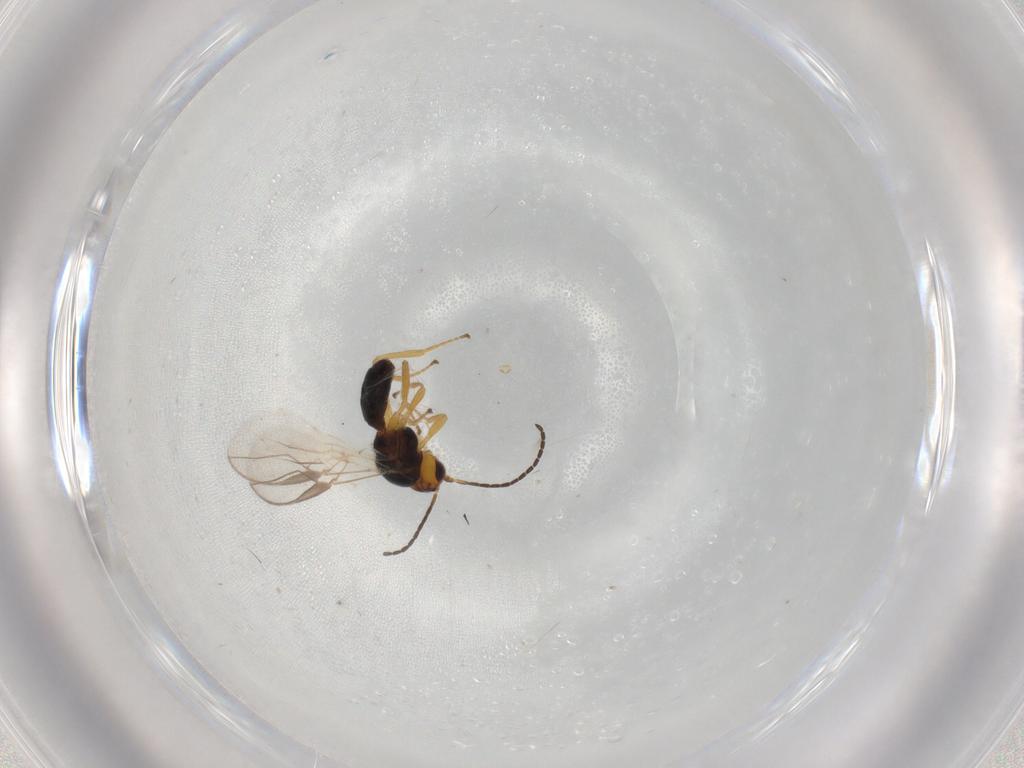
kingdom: Animalia
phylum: Arthropoda
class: Insecta
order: Hymenoptera
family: Braconidae
